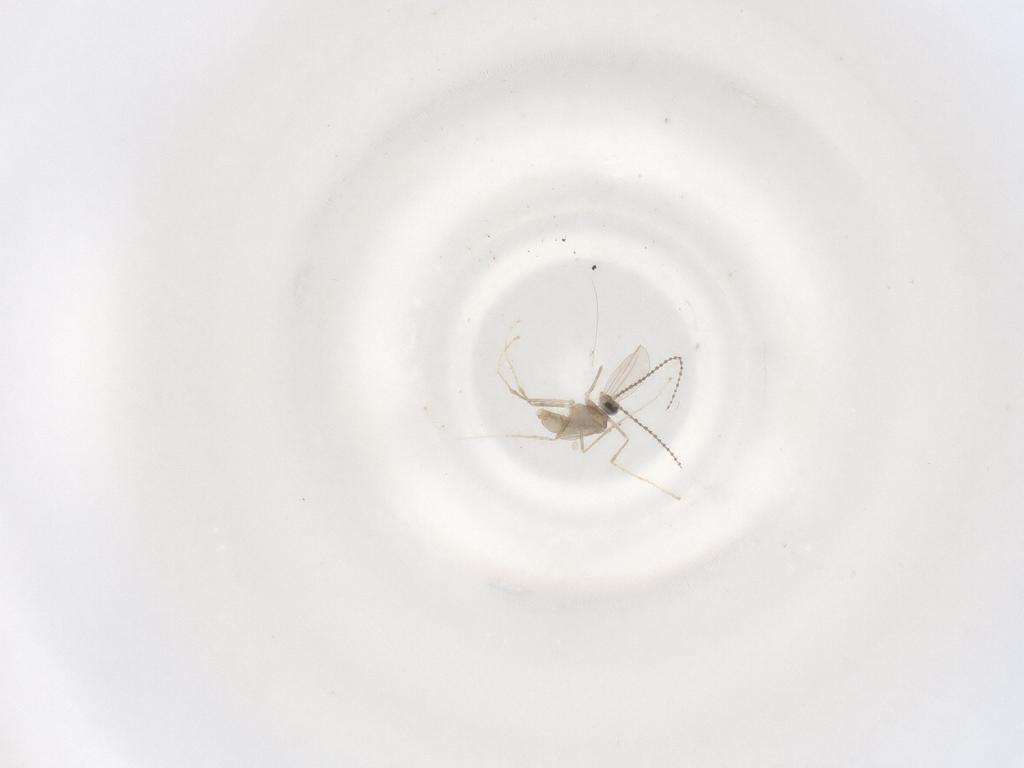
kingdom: Animalia
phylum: Arthropoda
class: Insecta
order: Diptera
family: Cecidomyiidae
